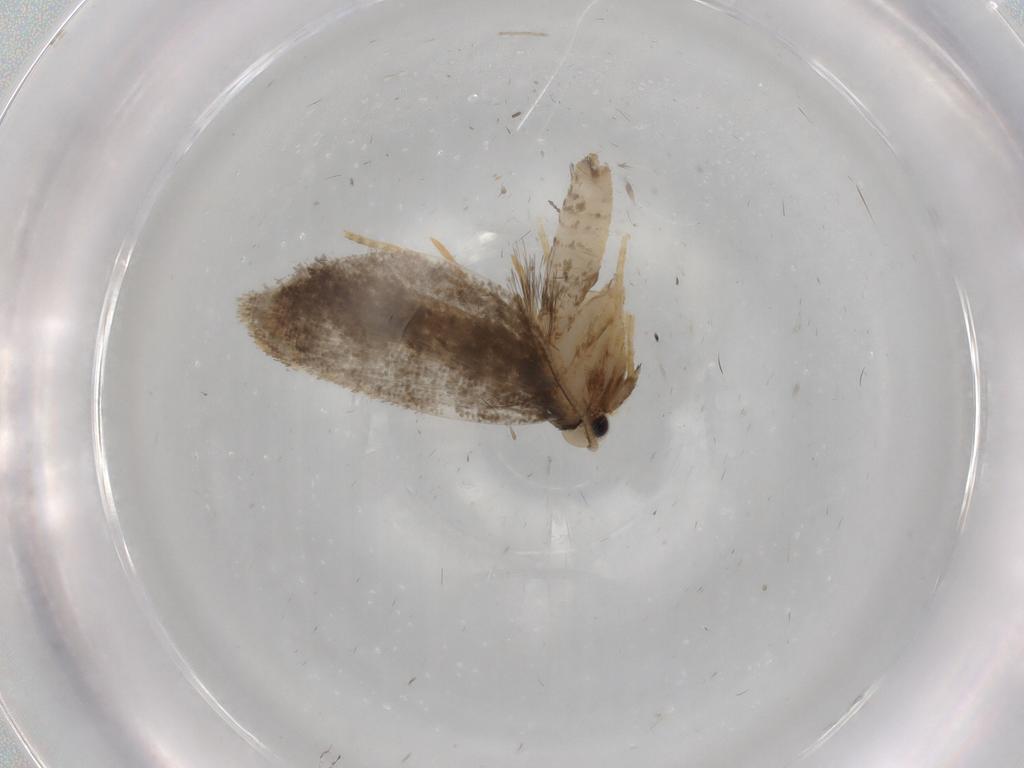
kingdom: Animalia
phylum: Arthropoda
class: Insecta
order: Lepidoptera
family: Psychidae
